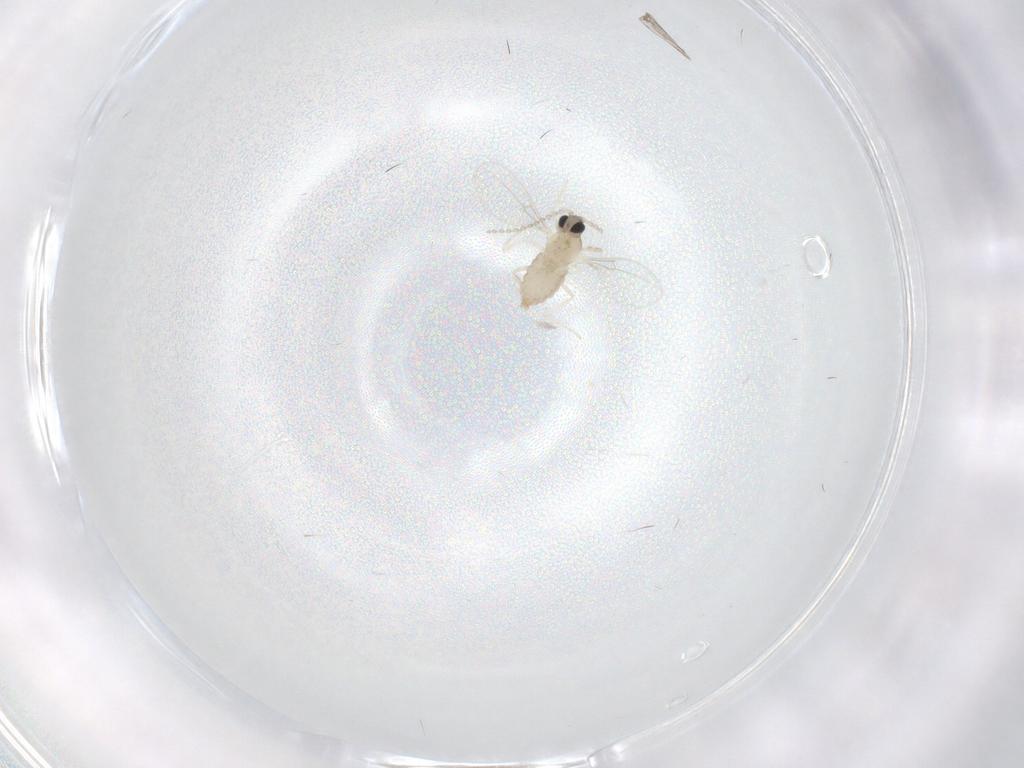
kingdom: Animalia
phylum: Arthropoda
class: Insecta
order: Diptera
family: Cecidomyiidae
